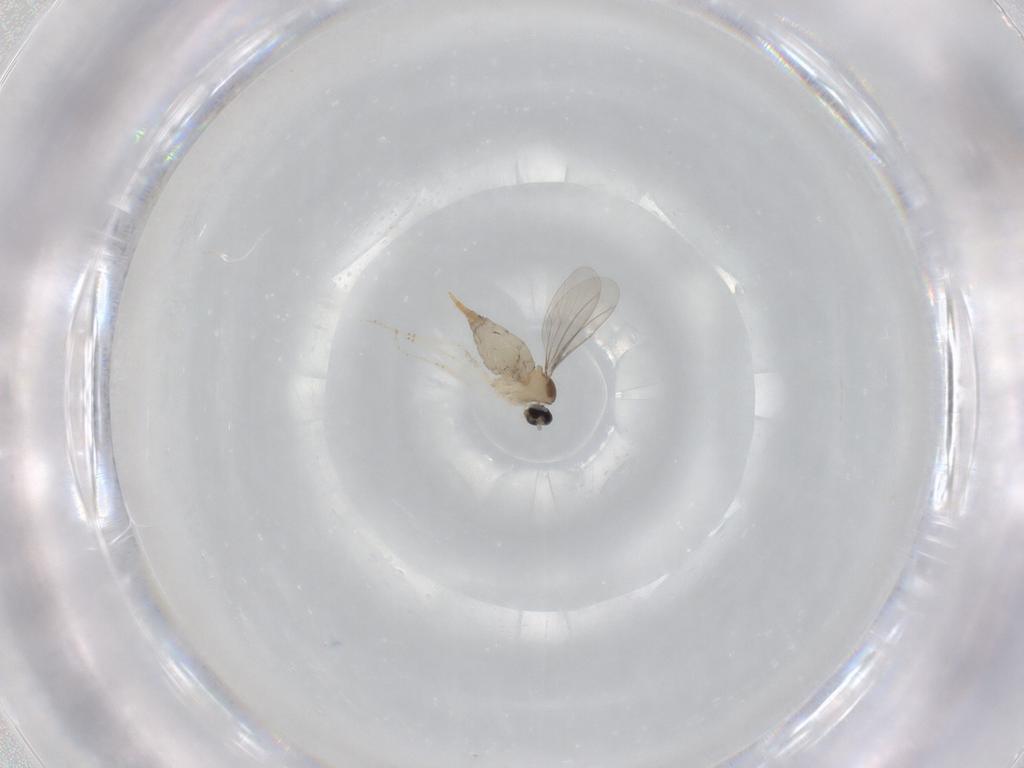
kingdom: Animalia
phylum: Arthropoda
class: Insecta
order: Diptera
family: Cecidomyiidae
